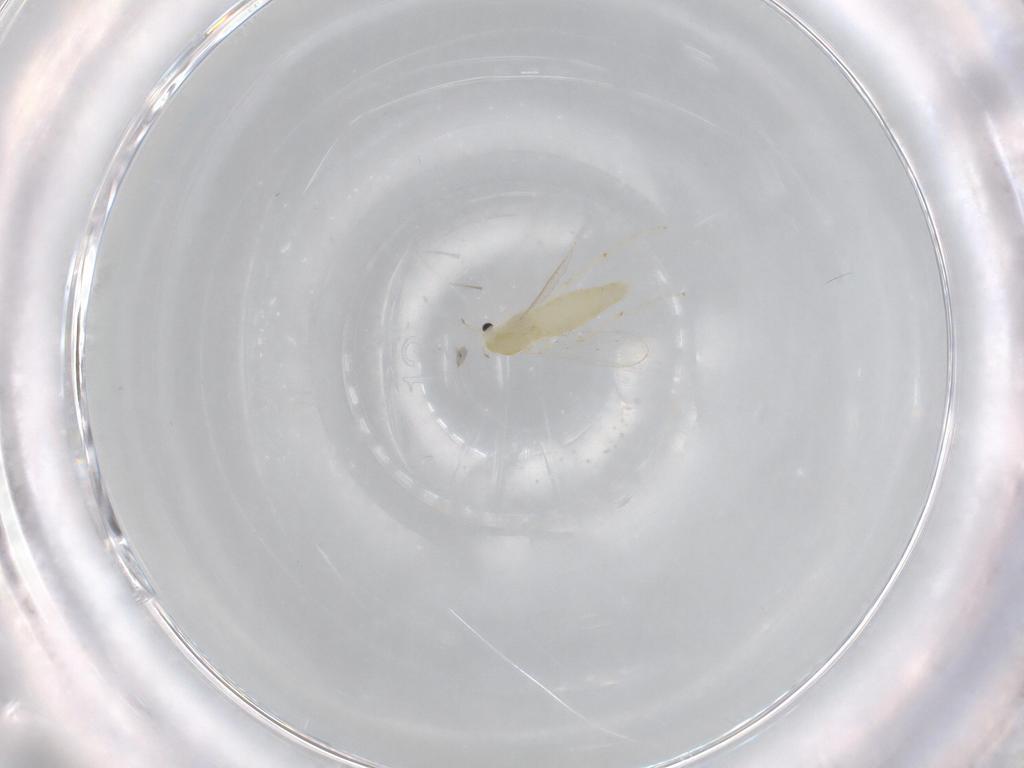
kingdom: Animalia
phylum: Arthropoda
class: Insecta
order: Diptera
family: Chironomidae
